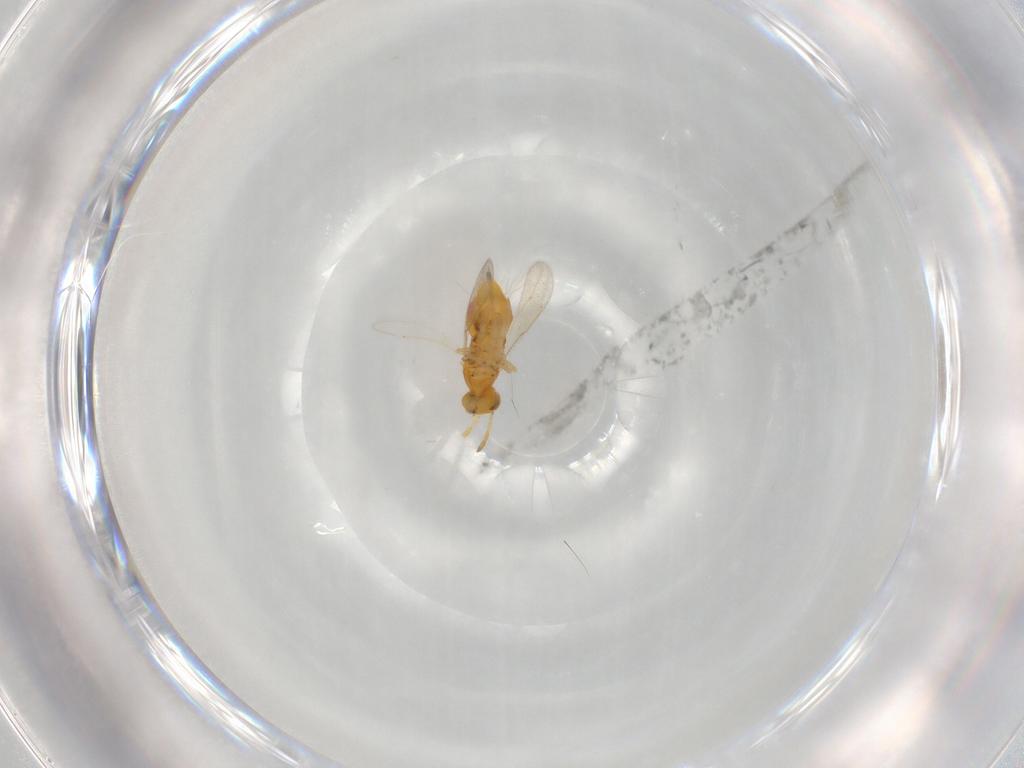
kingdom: Animalia
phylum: Arthropoda
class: Insecta
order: Hymenoptera
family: Aphelinidae
